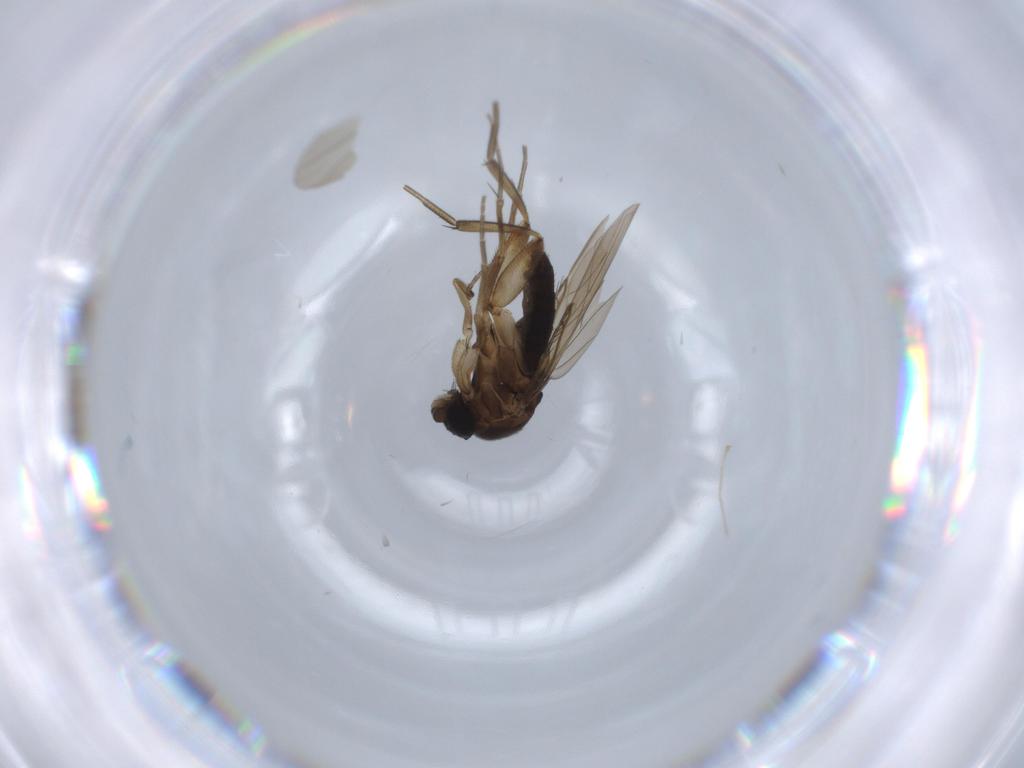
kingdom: Animalia
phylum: Arthropoda
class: Insecta
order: Diptera
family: Phoridae
